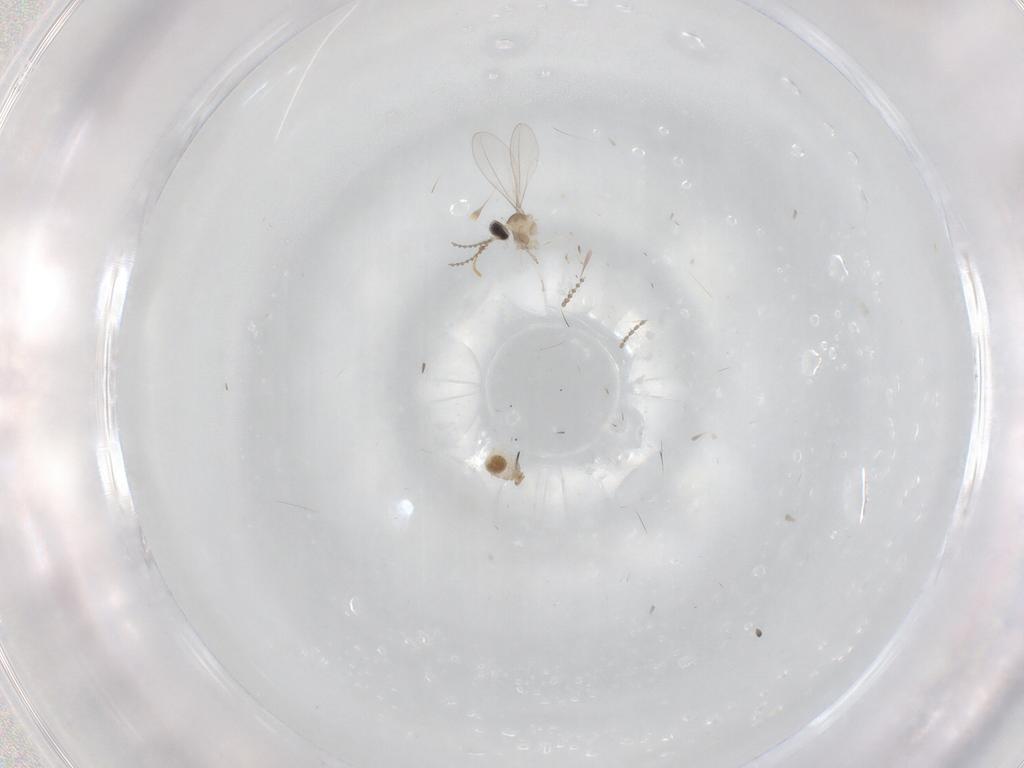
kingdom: Animalia
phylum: Arthropoda
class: Insecta
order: Diptera
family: Cecidomyiidae
